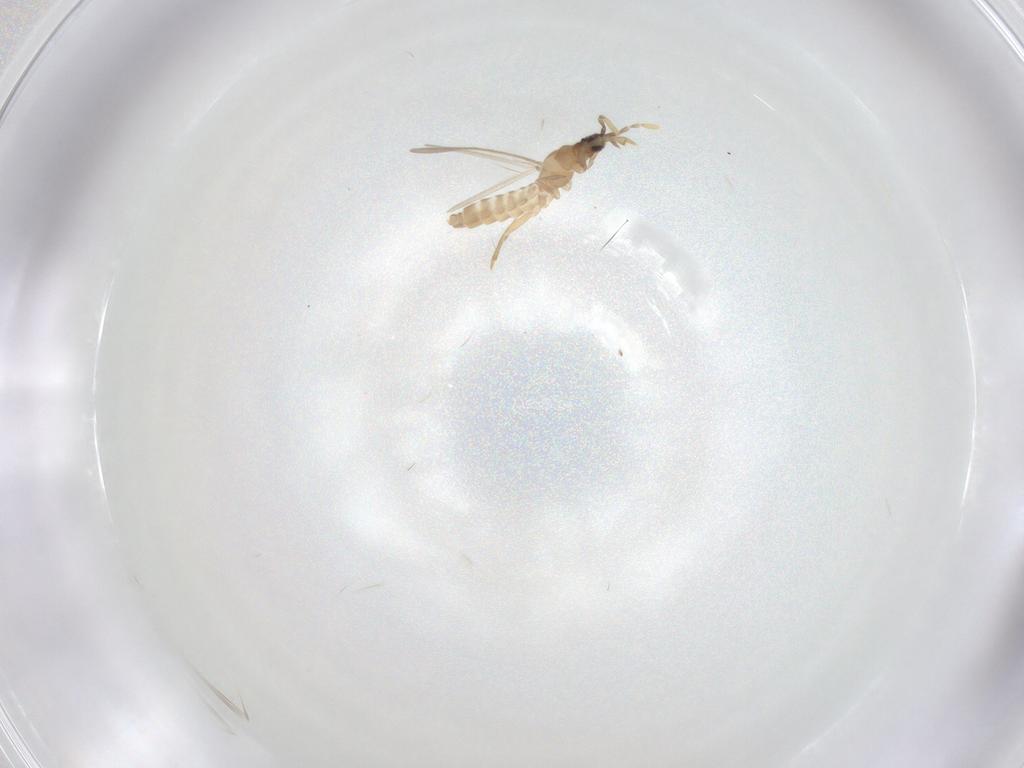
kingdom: Animalia
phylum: Arthropoda
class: Insecta
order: Hemiptera
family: Enicocephalidae
